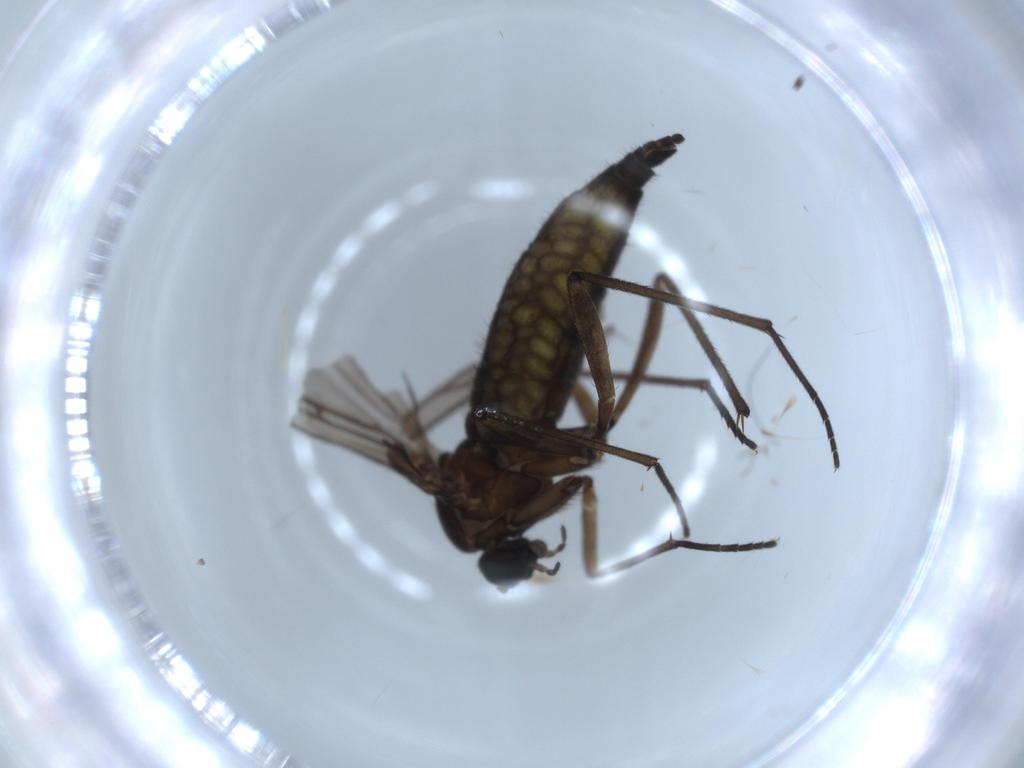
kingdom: Animalia
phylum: Arthropoda
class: Insecta
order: Diptera
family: Sciaridae
